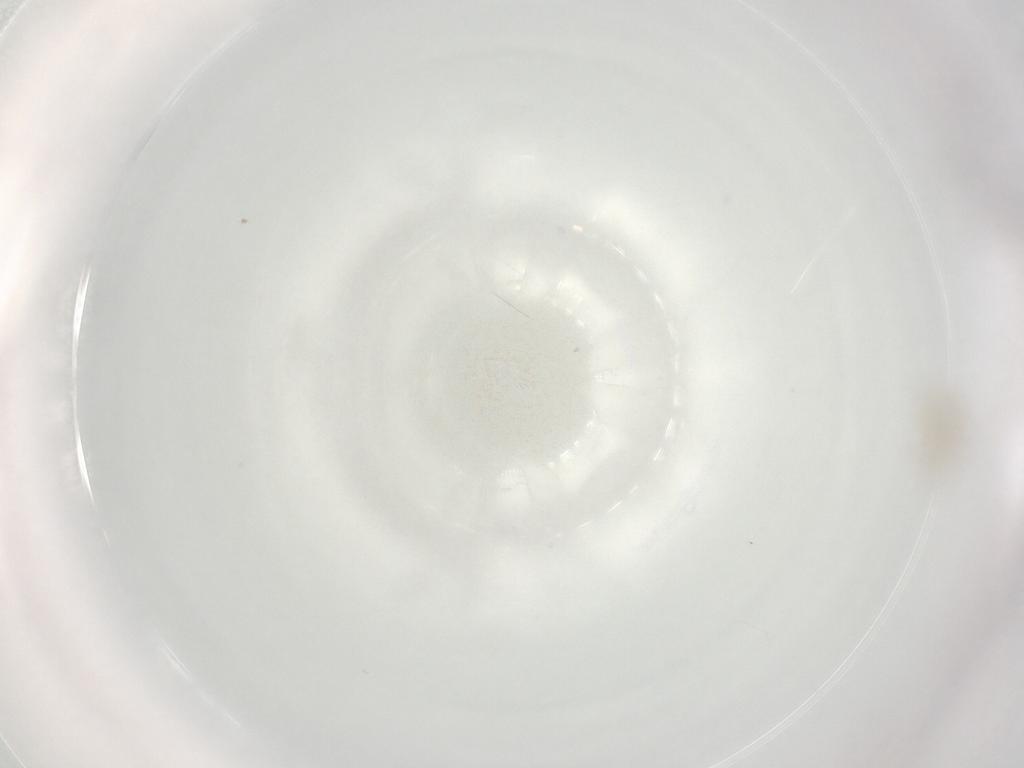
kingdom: Animalia
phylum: Arthropoda
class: Arachnida
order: Trombidiformes
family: Erythraeidae
